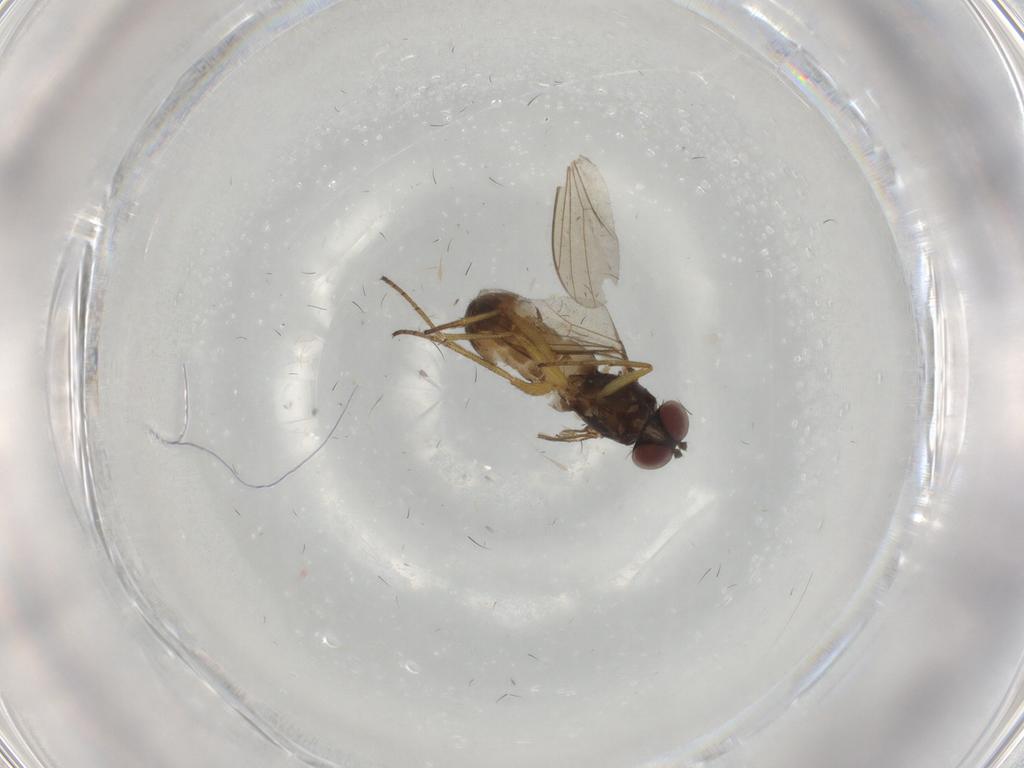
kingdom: Animalia
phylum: Arthropoda
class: Insecta
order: Diptera
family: Dolichopodidae
